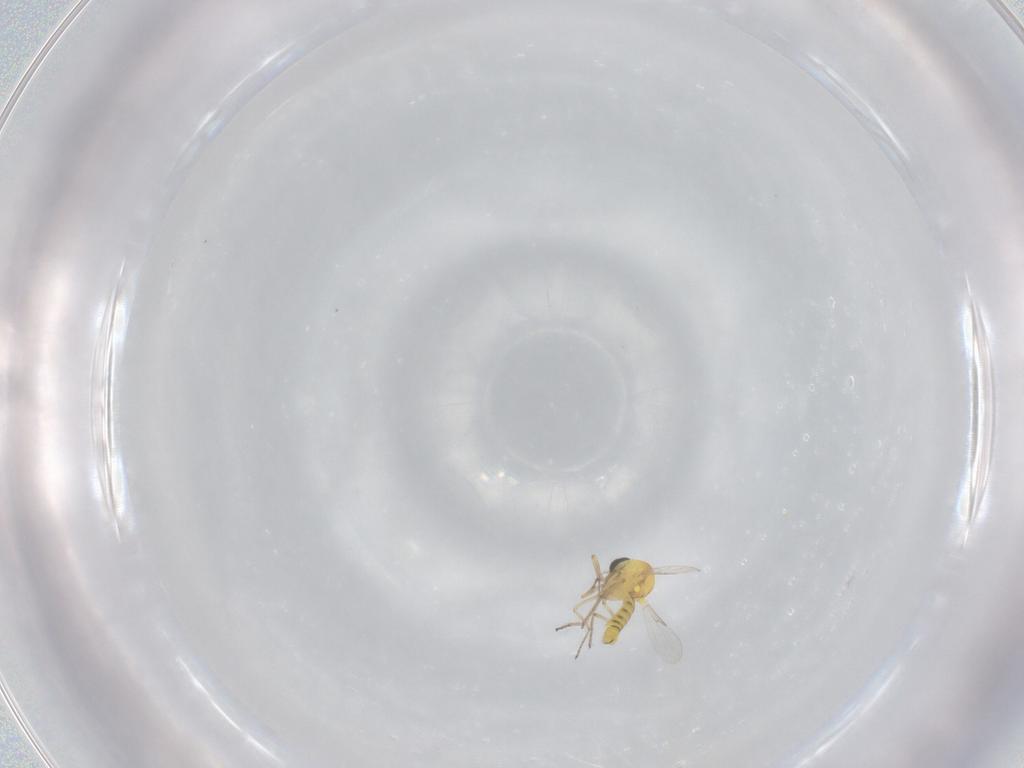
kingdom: Animalia
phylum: Arthropoda
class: Insecta
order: Diptera
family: Ceratopogonidae
